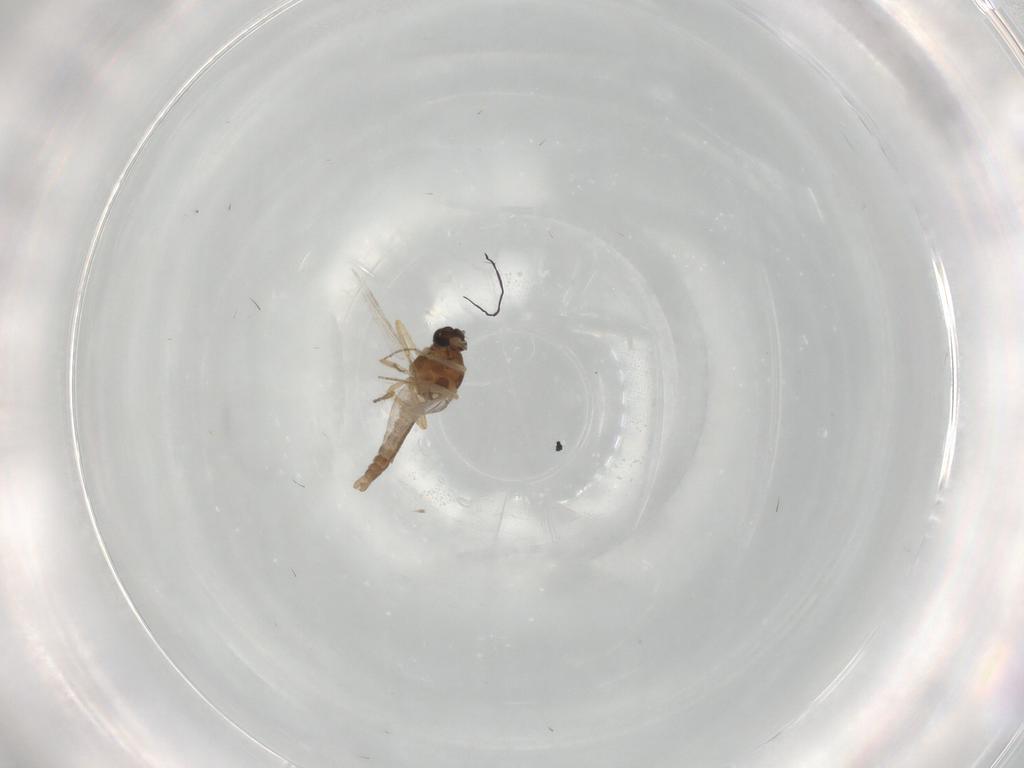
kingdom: Animalia
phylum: Arthropoda
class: Insecta
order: Diptera
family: Ceratopogonidae
